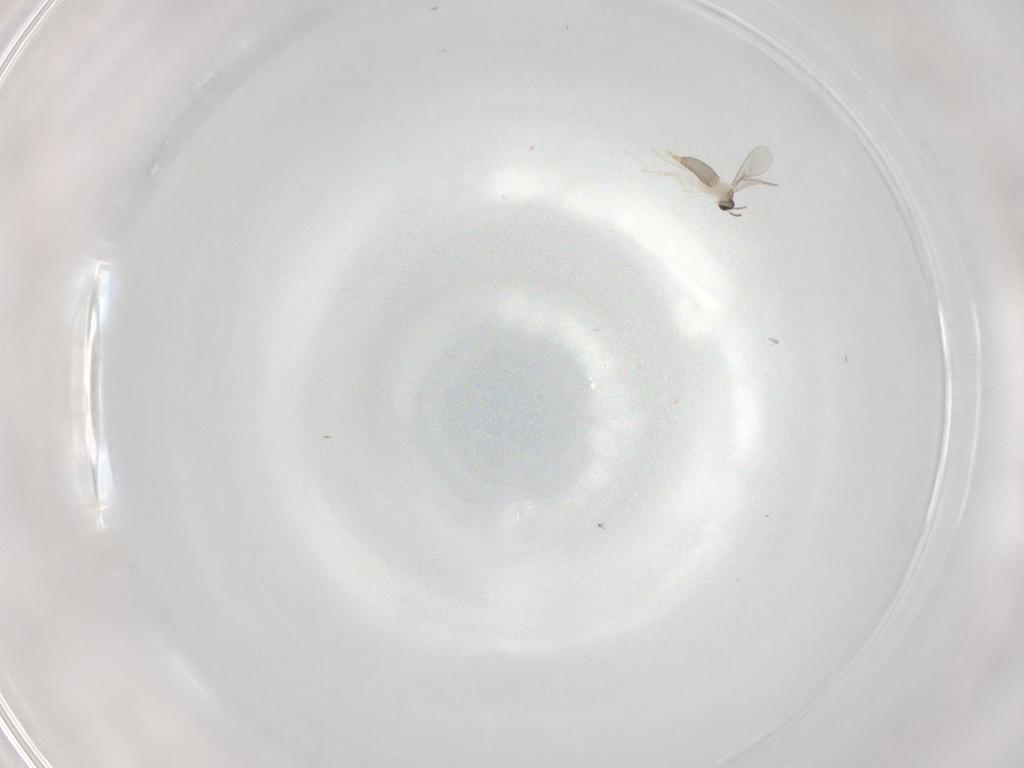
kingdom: Animalia
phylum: Arthropoda
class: Insecta
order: Diptera
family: Cecidomyiidae
